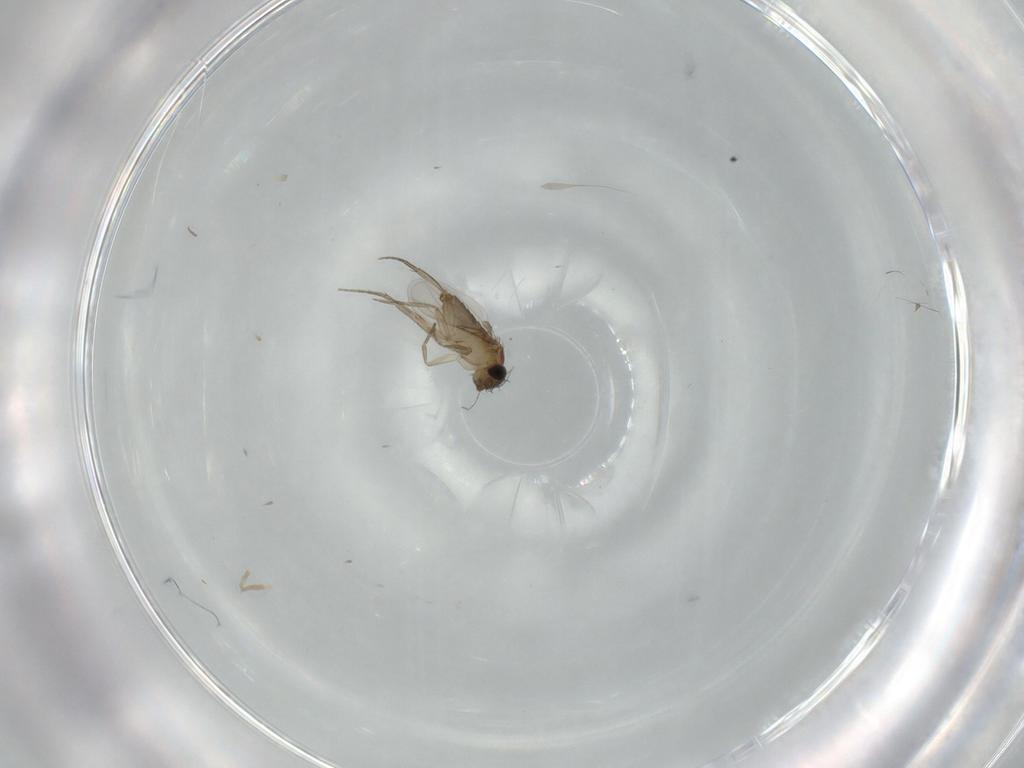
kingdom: Animalia
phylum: Arthropoda
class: Insecta
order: Diptera
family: Phoridae
